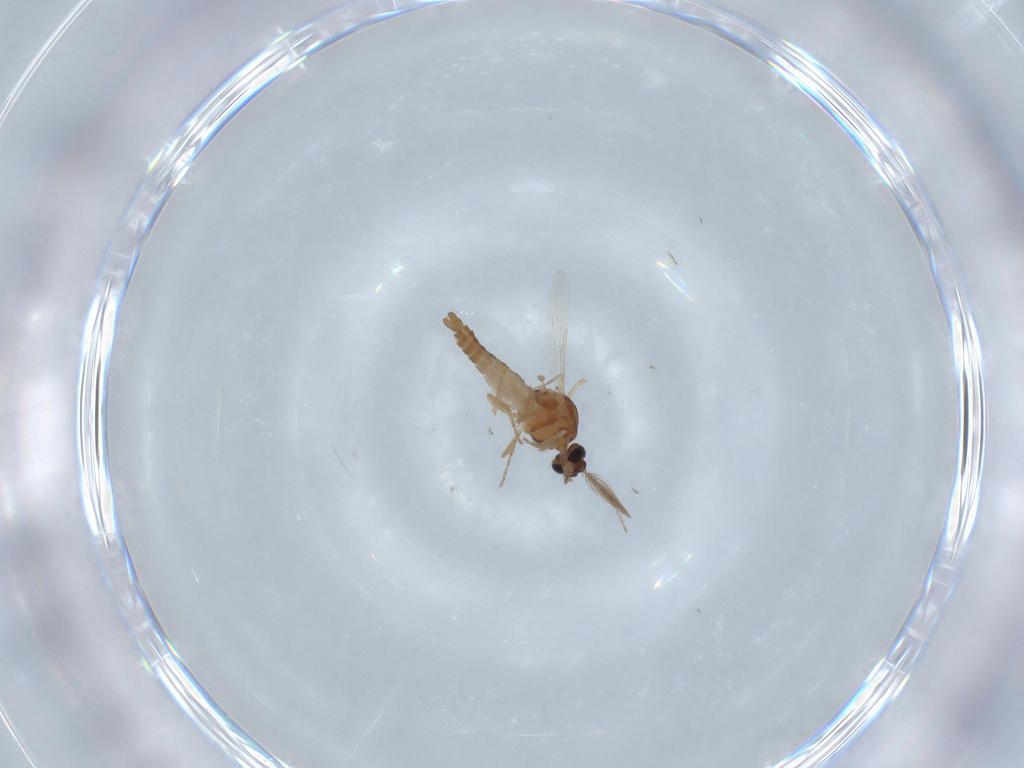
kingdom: Animalia
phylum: Arthropoda
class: Insecta
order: Diptera
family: Ceratopogonidae
